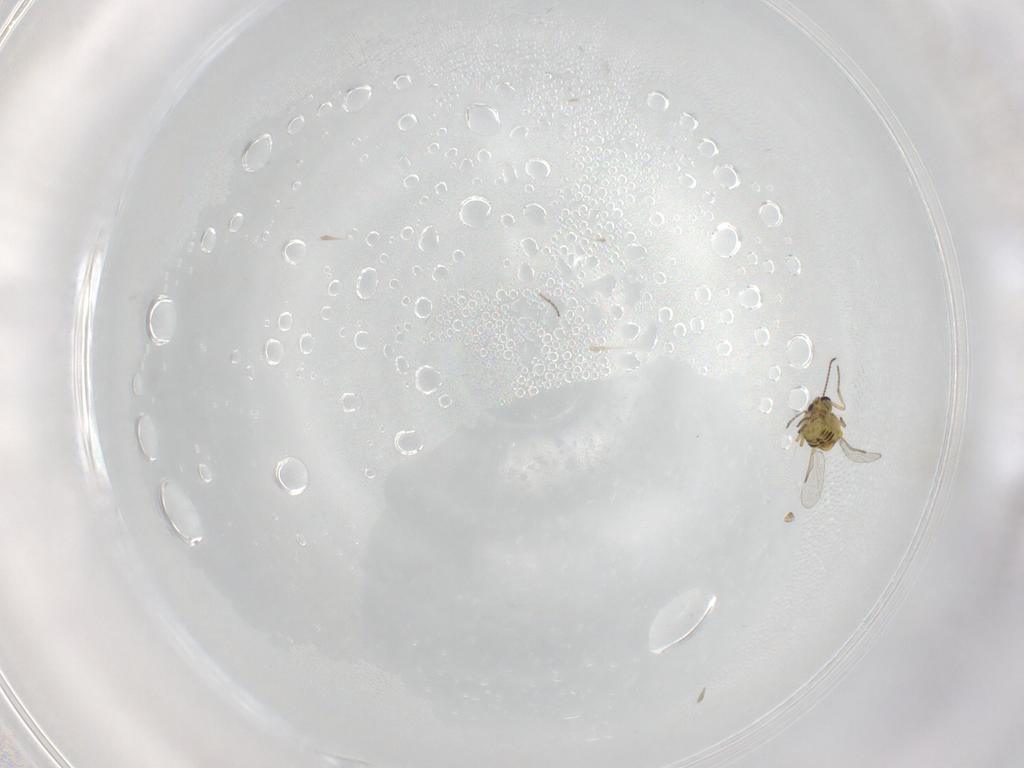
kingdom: Animalia
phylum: Arthropoda
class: Insecta
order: Diptera
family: Ceratopogonidae
